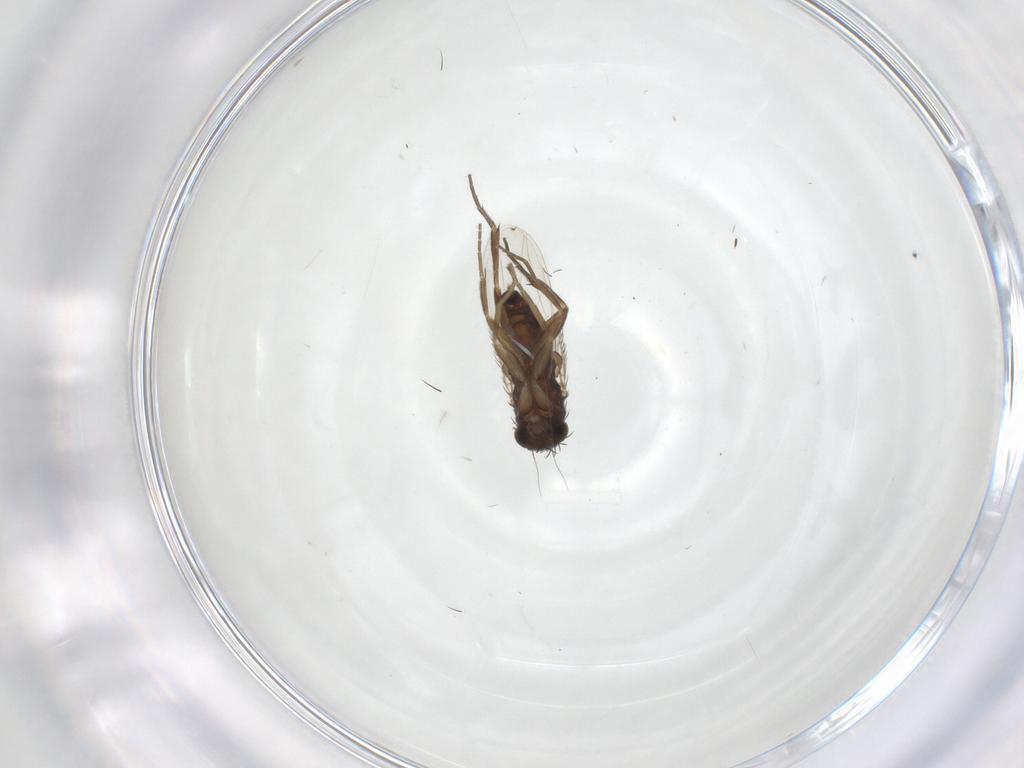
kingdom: Animalia
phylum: Arthropoda
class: Insecta
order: Diptera
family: Phoridae
